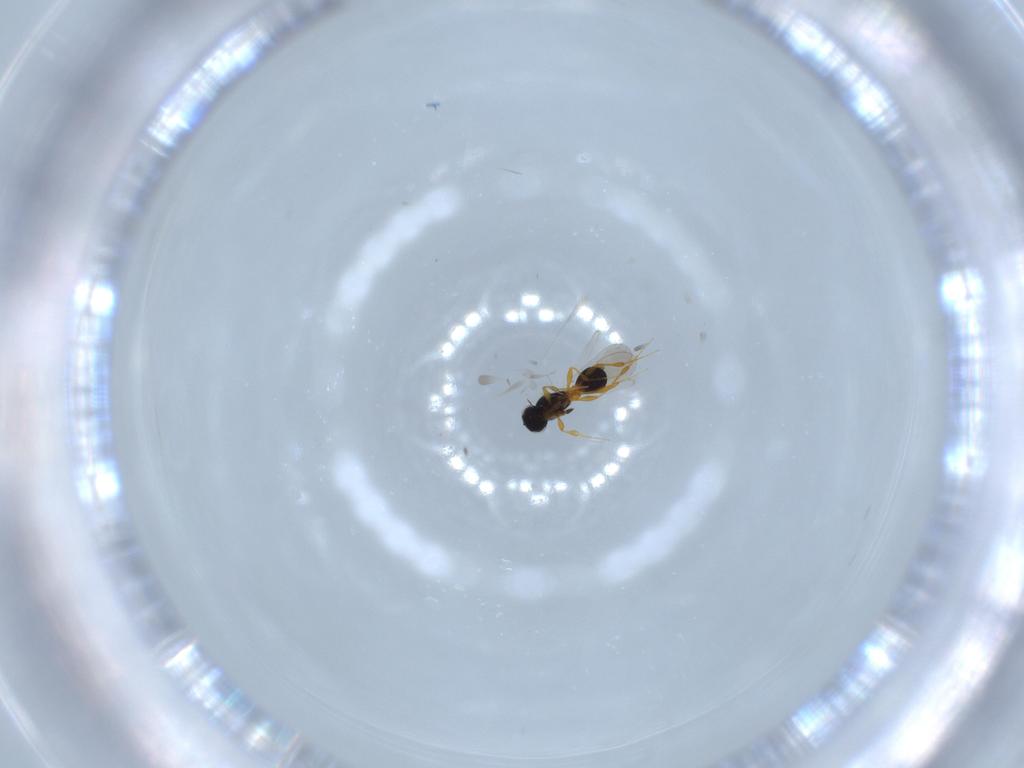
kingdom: Animalia
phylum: Arthropoda
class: Insecta
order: Hymenoptera
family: Platygastridae
